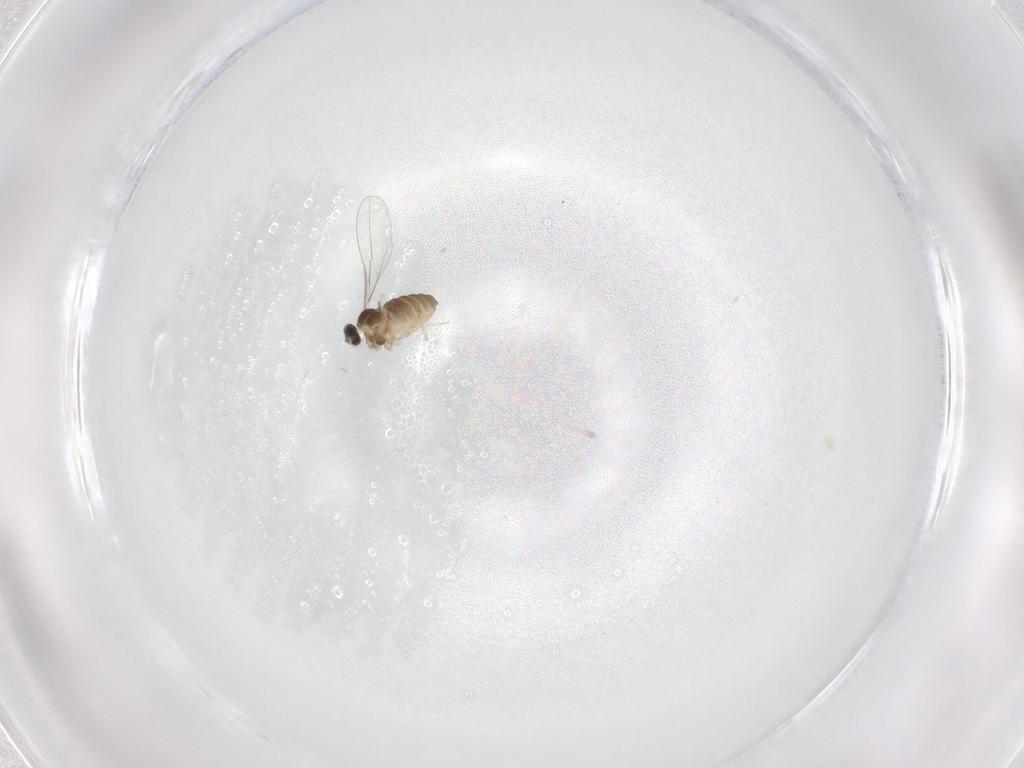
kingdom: Animalia
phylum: Arthropoda
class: Insecta
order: Diptera
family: Cecidomyiidae
